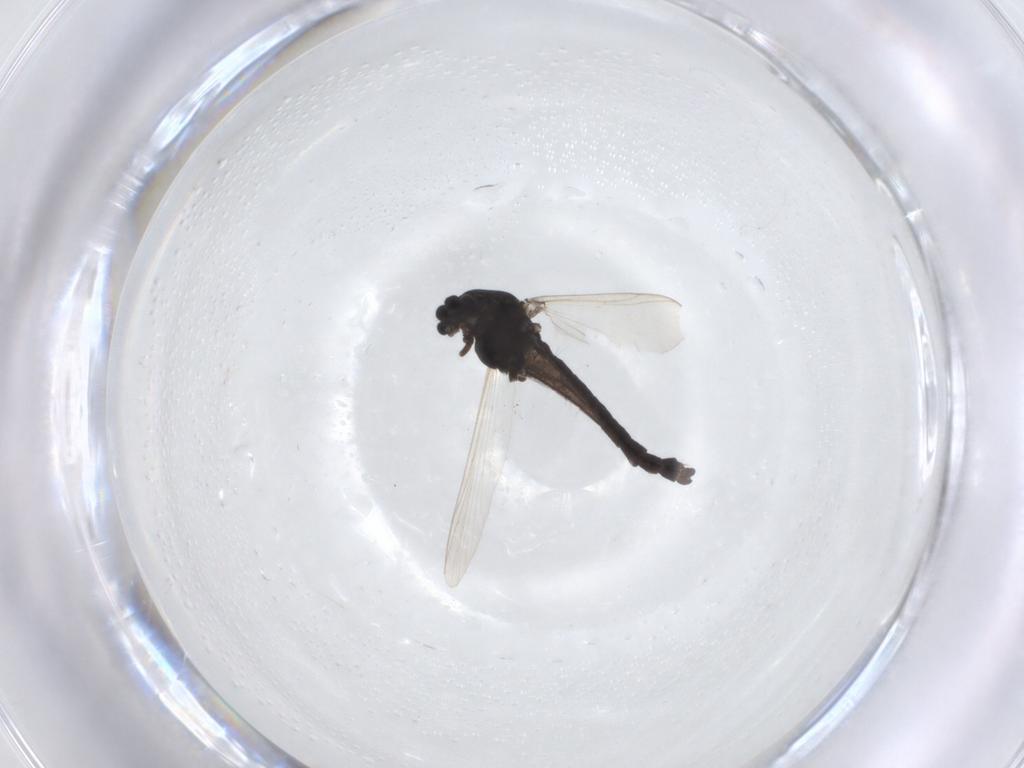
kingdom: Animalia
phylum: Arthropoda
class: Insecta
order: Diptera
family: Chironomidae
